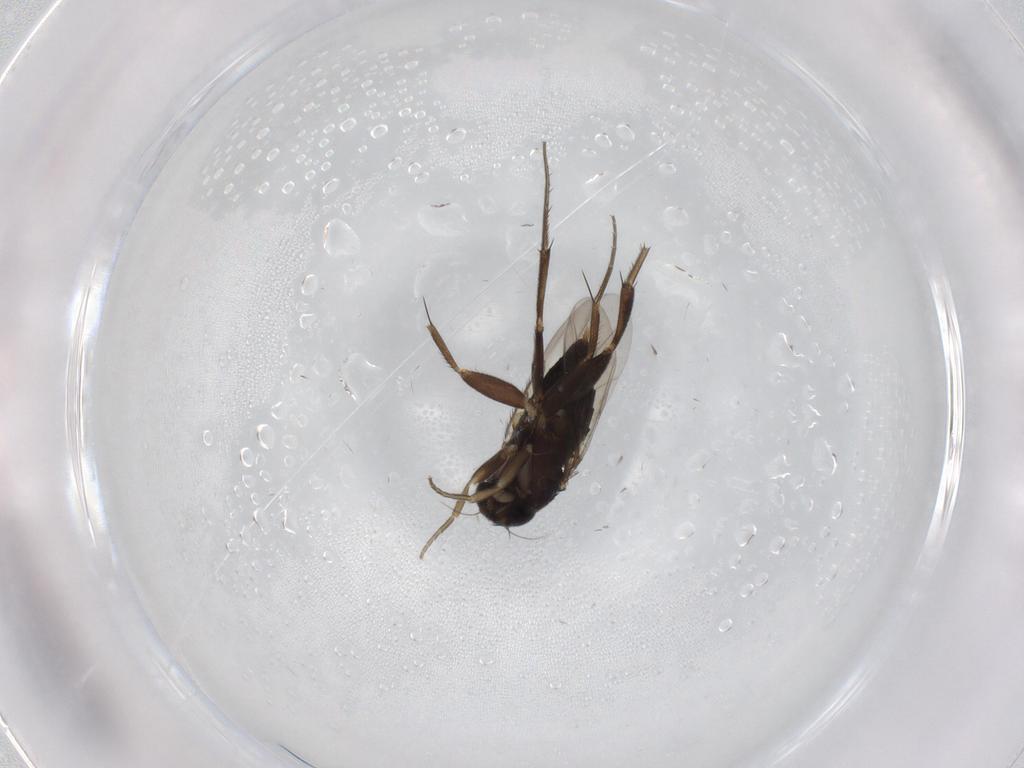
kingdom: Animalia
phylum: Arthropoda
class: Insecta
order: Diptera
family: Phoridae
